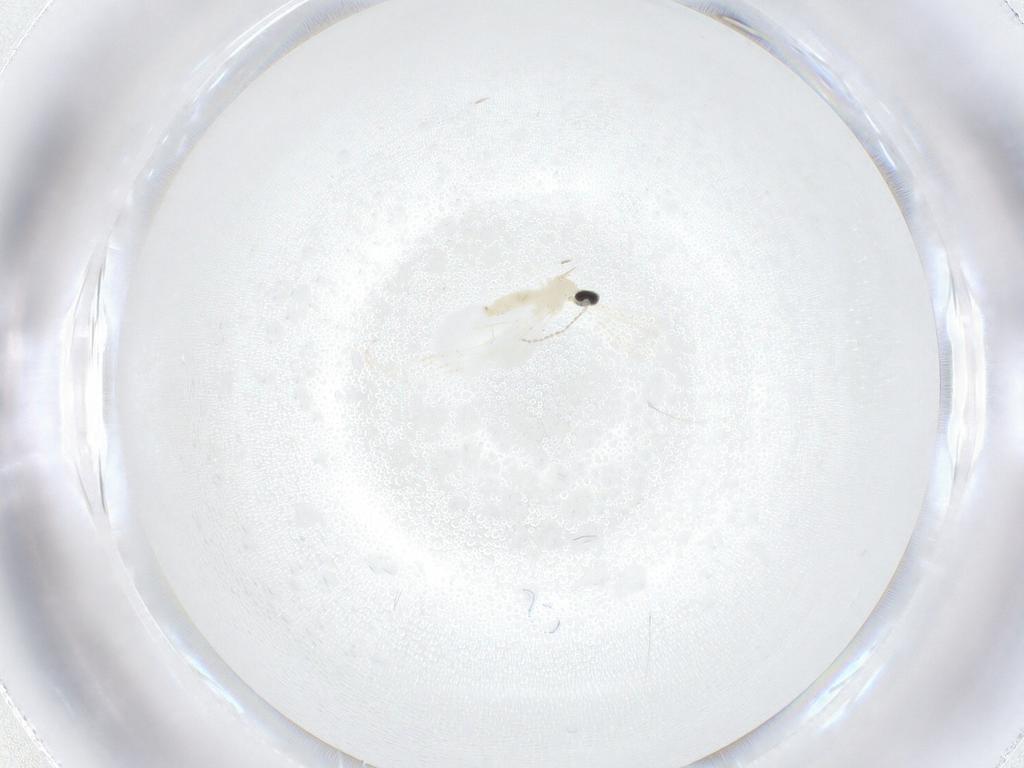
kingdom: Animalia
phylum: Arthropoda
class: Insecta
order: Diptera
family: Cecidomyiidae
